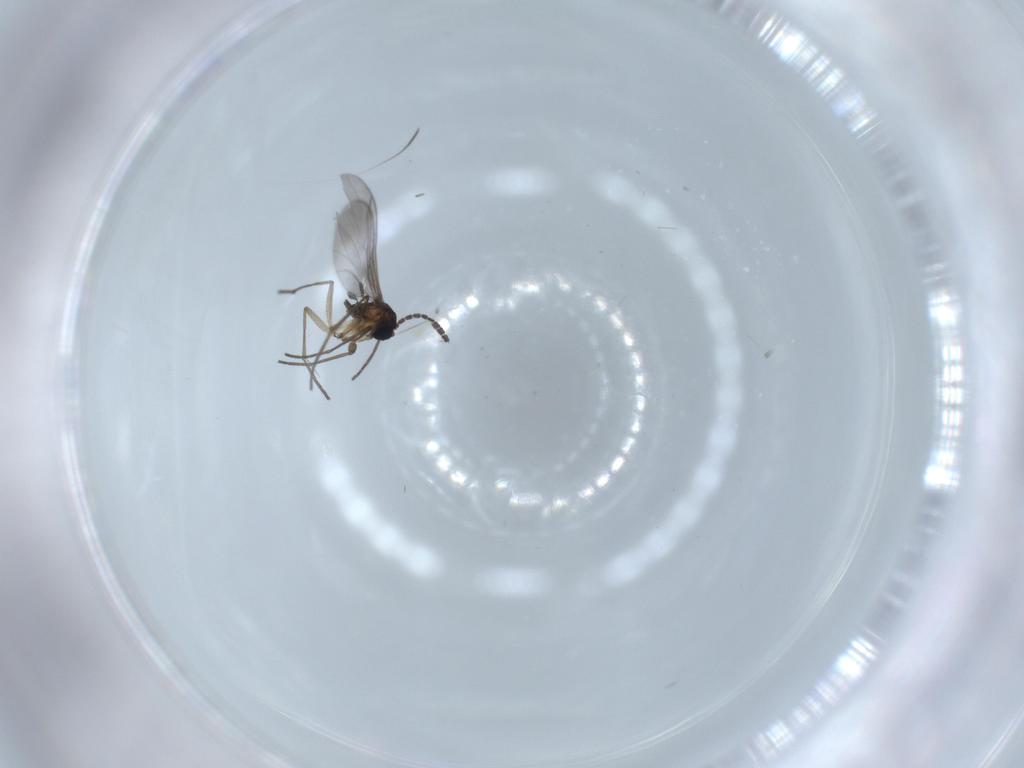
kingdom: Animalia
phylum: Arthropoda
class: Insecta
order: Diptera
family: Sciaridae
